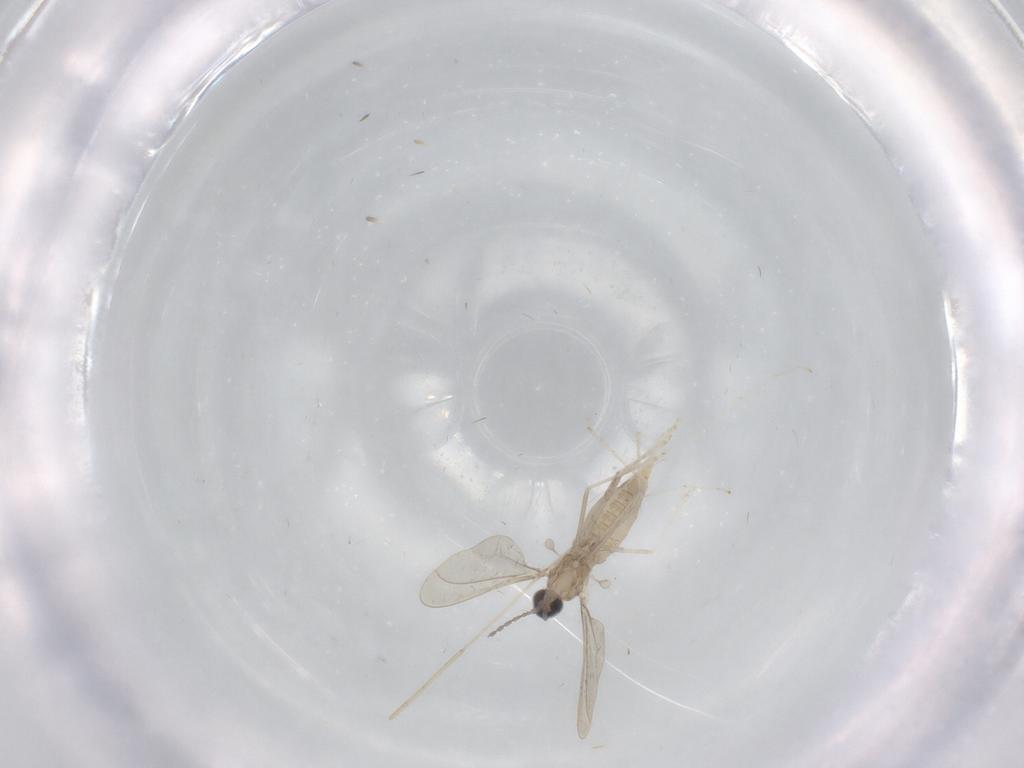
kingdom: Animalia
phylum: Arthropoda
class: Insecta
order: Diptera
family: Cecidomyiidae
